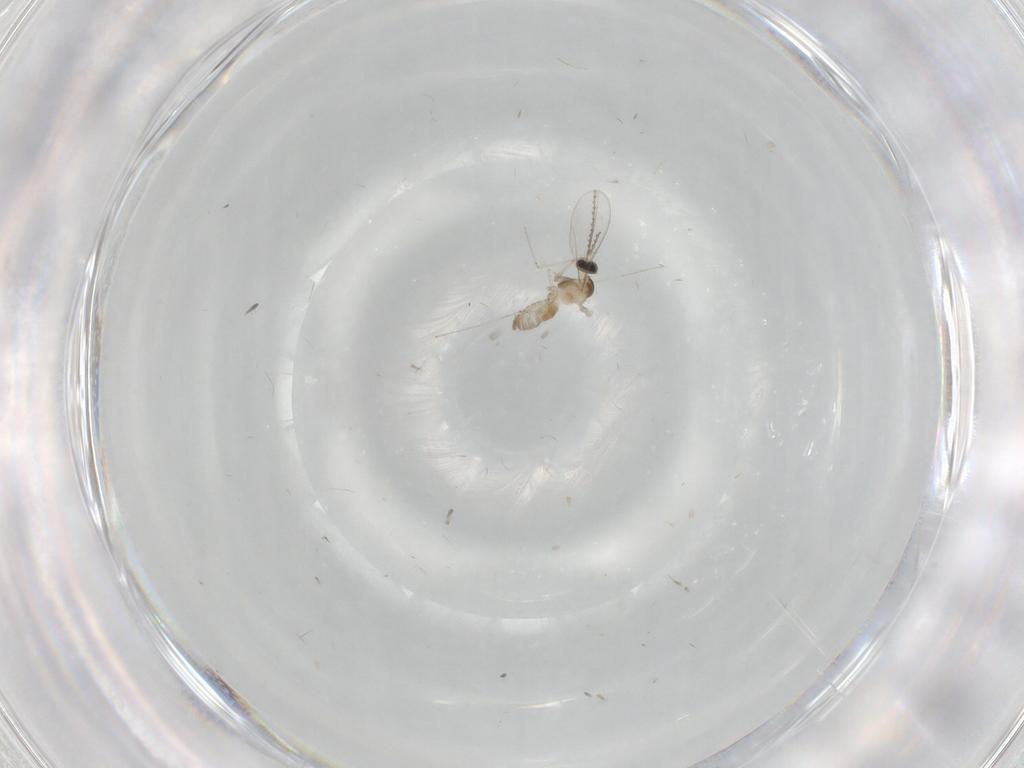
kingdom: Animalia
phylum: Arthropoda
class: Insecta
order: Diptera
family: Cecidomyiidae
